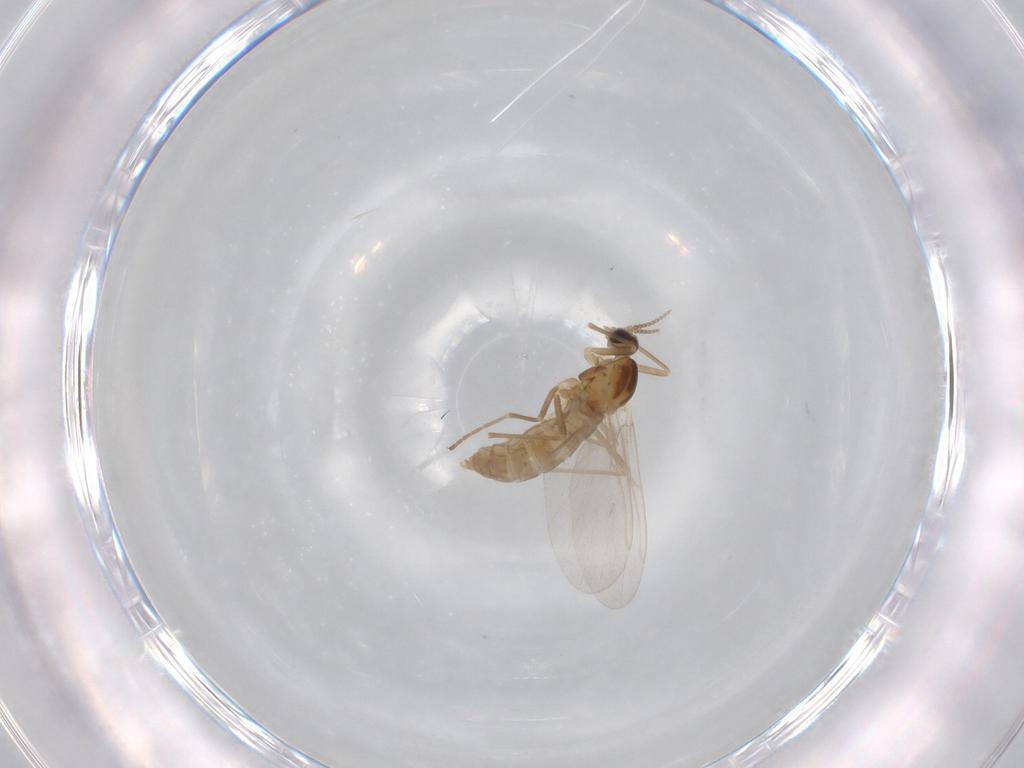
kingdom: Animalia
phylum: Arthropoda
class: Insecta
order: Diptera
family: Cecidomyiidae
